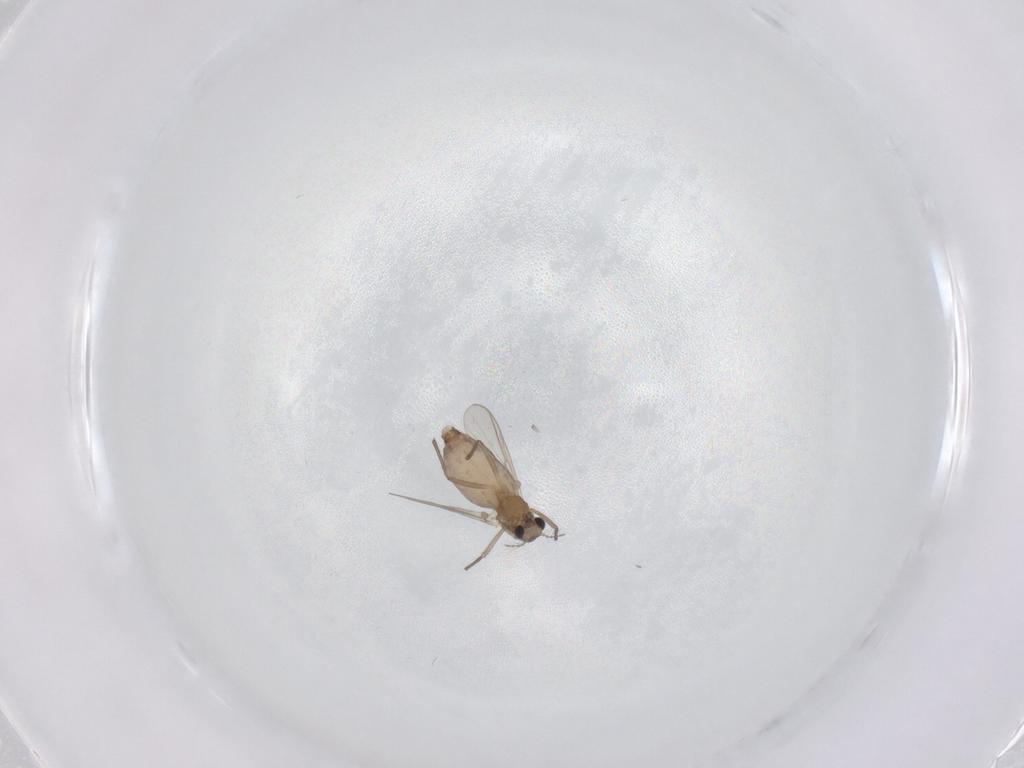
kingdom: Animalia
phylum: Arthropoda
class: Insecta
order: Diptera
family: Chironomidae
